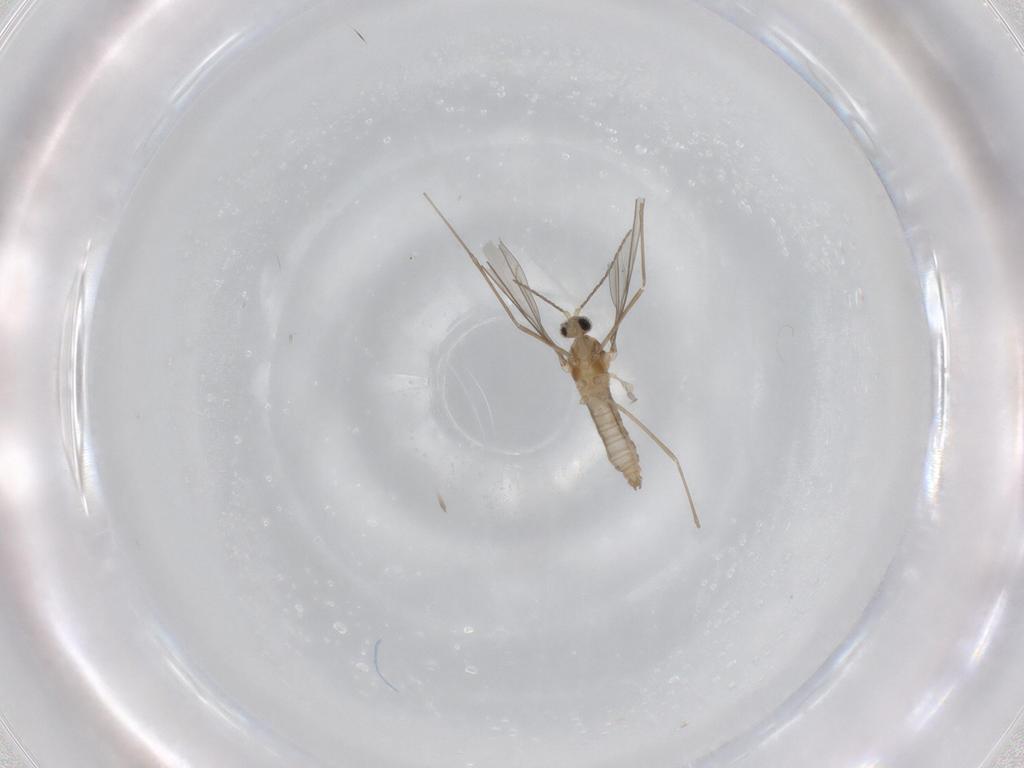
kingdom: Animalia
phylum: Arthropoda
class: Insecta
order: Diptera
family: Cecidomyiidae
